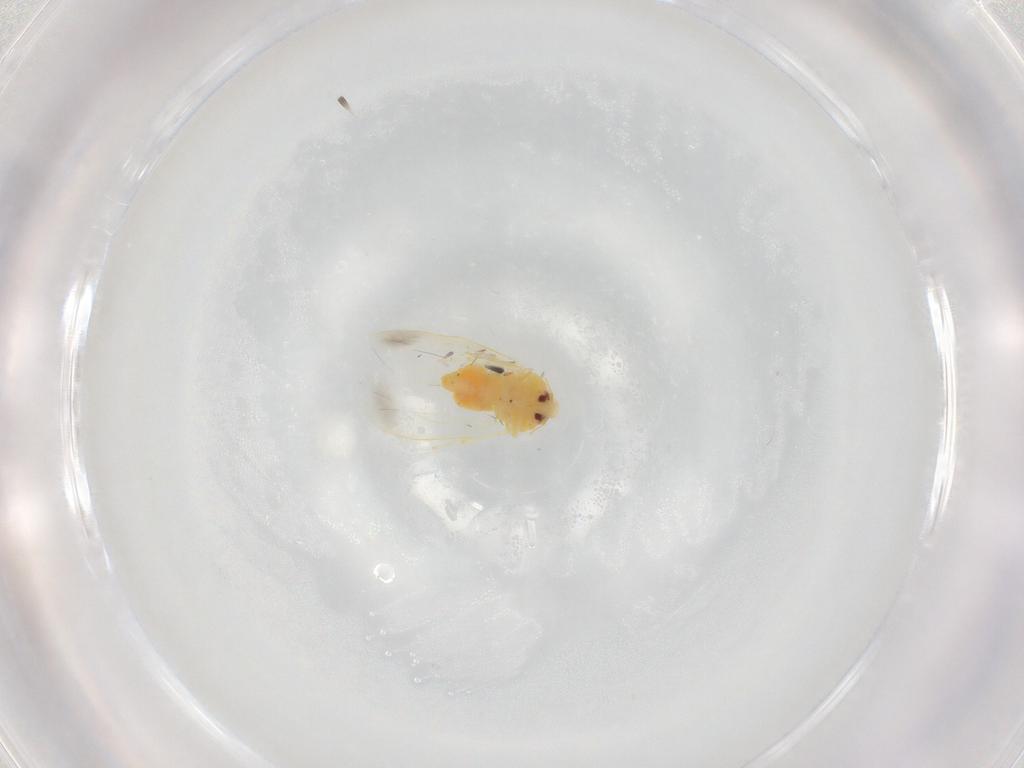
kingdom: Animalia
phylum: Arthropoda
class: Insecta
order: Hemiptera
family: Aleyrodidae
